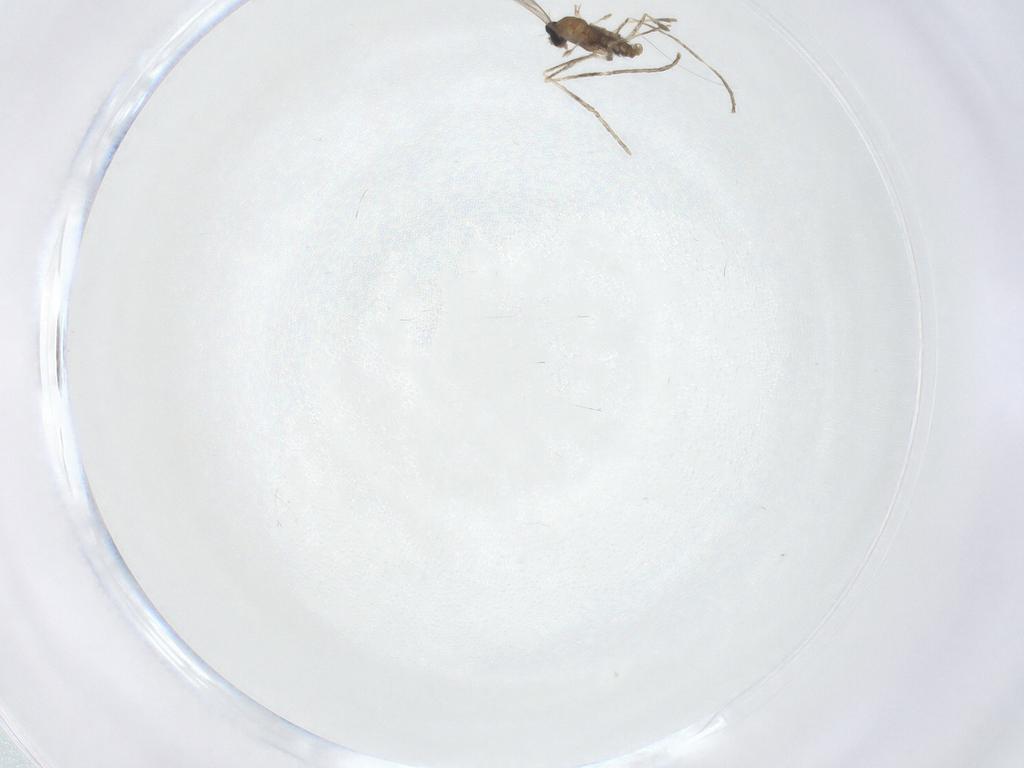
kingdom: Animalia
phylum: Arthropoda
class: Insecta
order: Diptera
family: Cecidomyiidae
